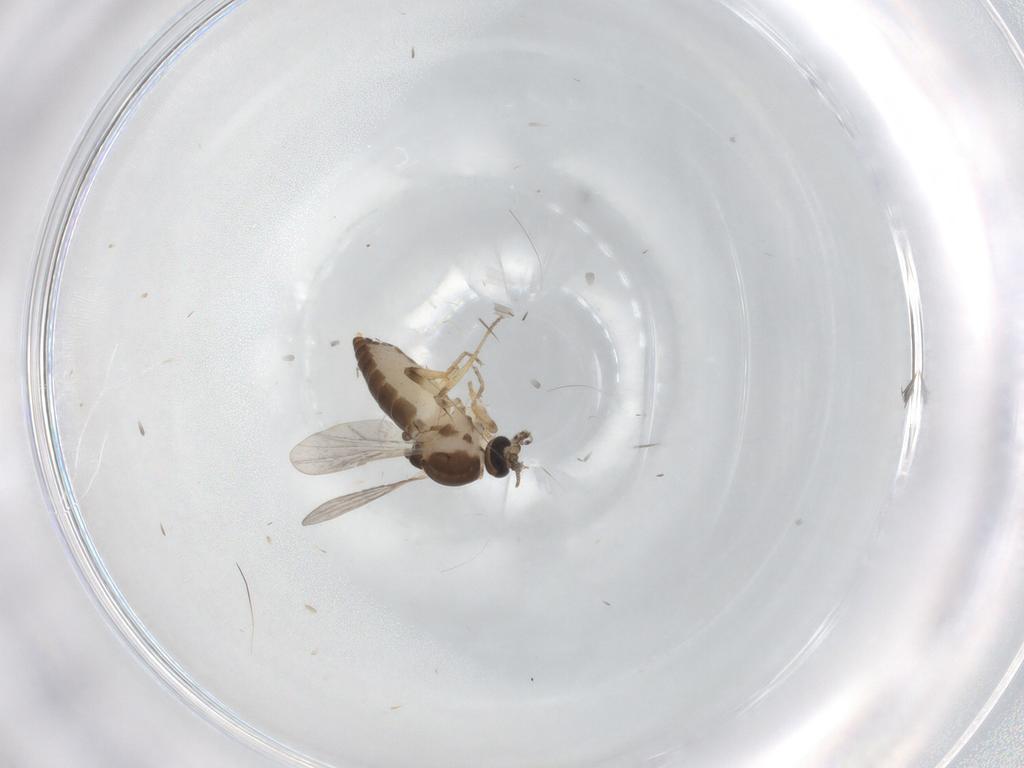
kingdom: Animalia
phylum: Arthropoda
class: Insecta
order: Diptera
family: Ceratopogonidae
